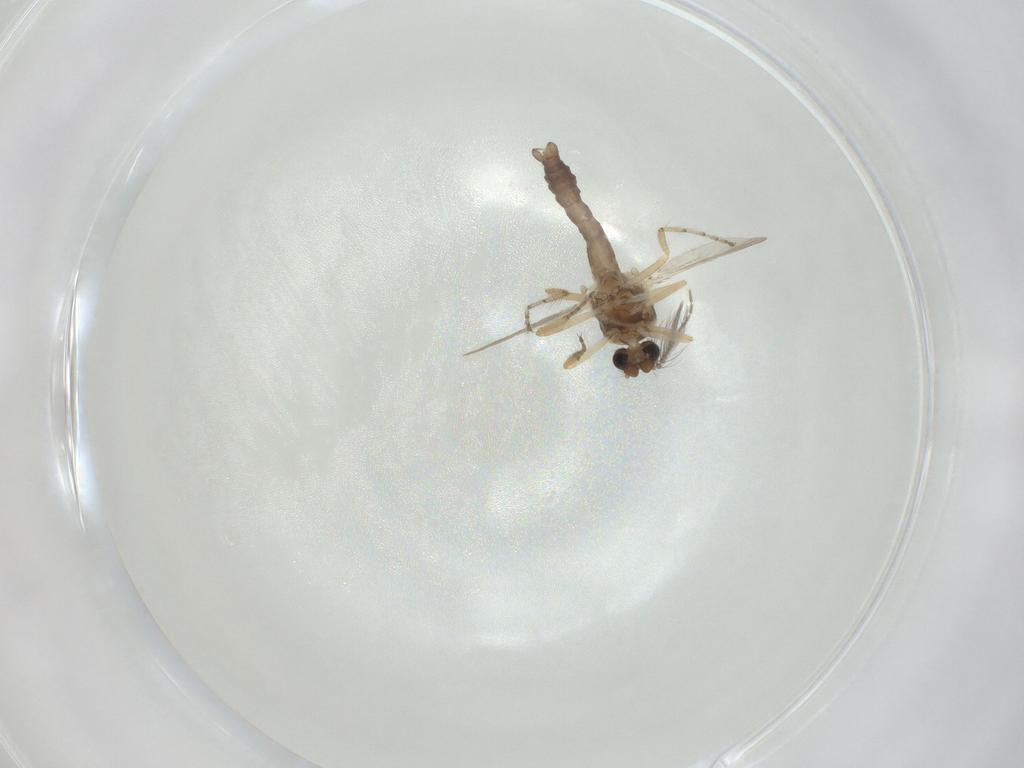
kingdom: Animalia
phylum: Arthropoda
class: Insecta
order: Diptera
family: Ceratopogonidae
